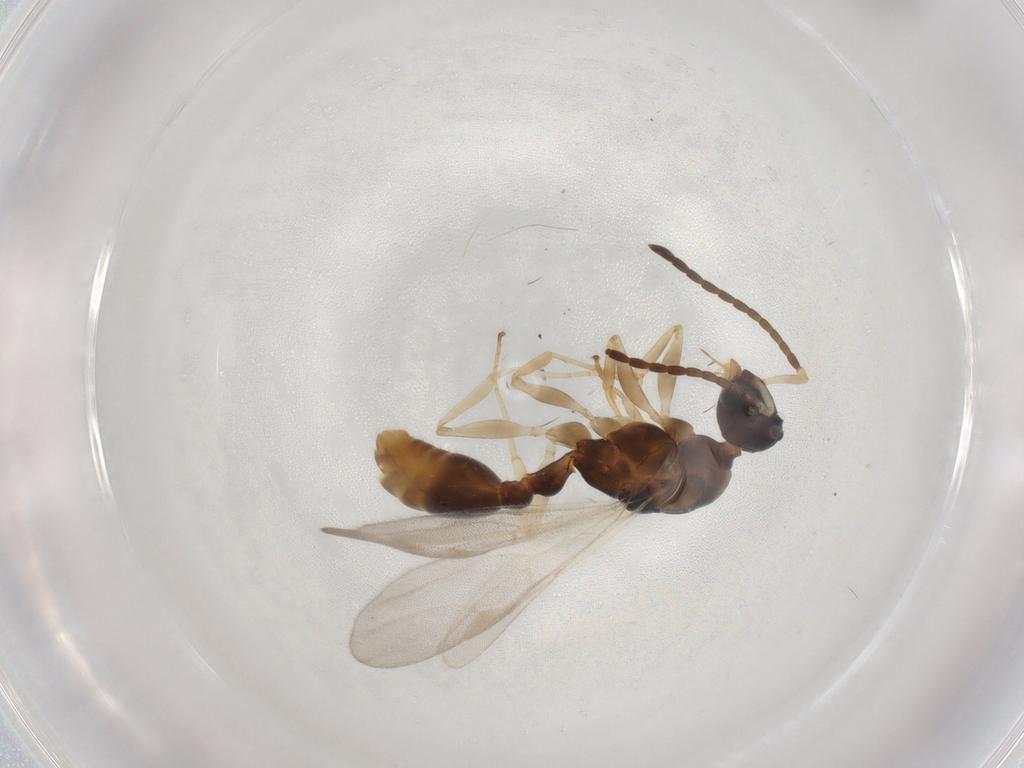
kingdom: Animalia
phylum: Arthropoda
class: Insecta
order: Hymenoptera
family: Formicidae
